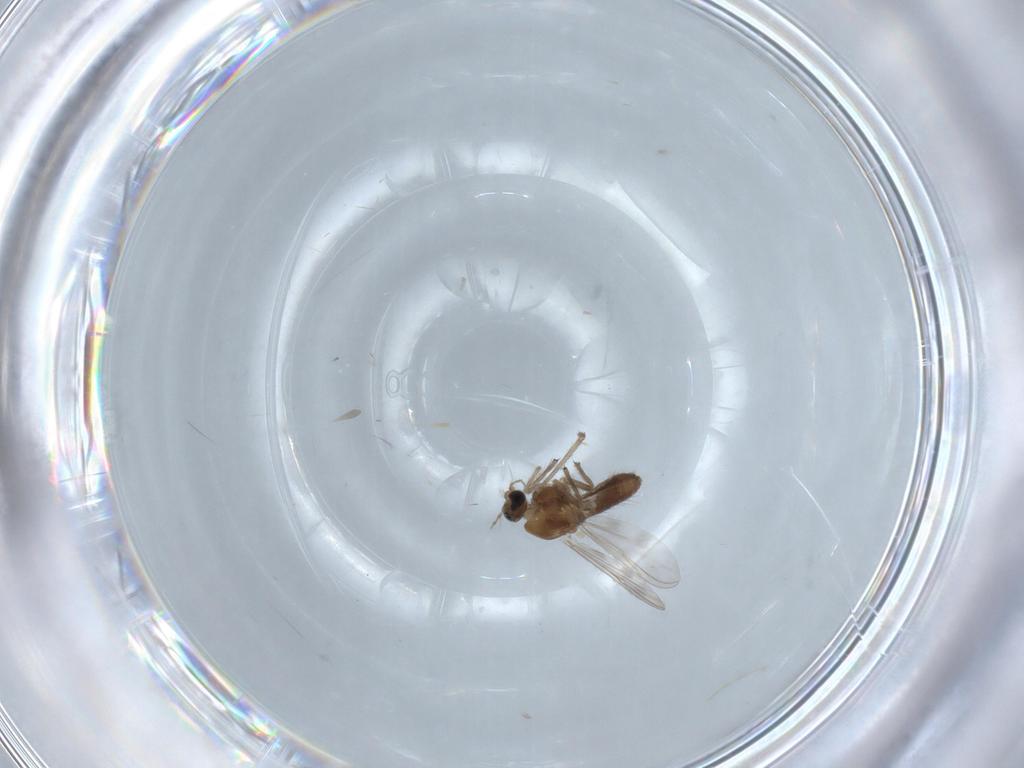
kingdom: Animalia
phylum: Arthropoda
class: Insecta
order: Diptera
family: Chironomidae
